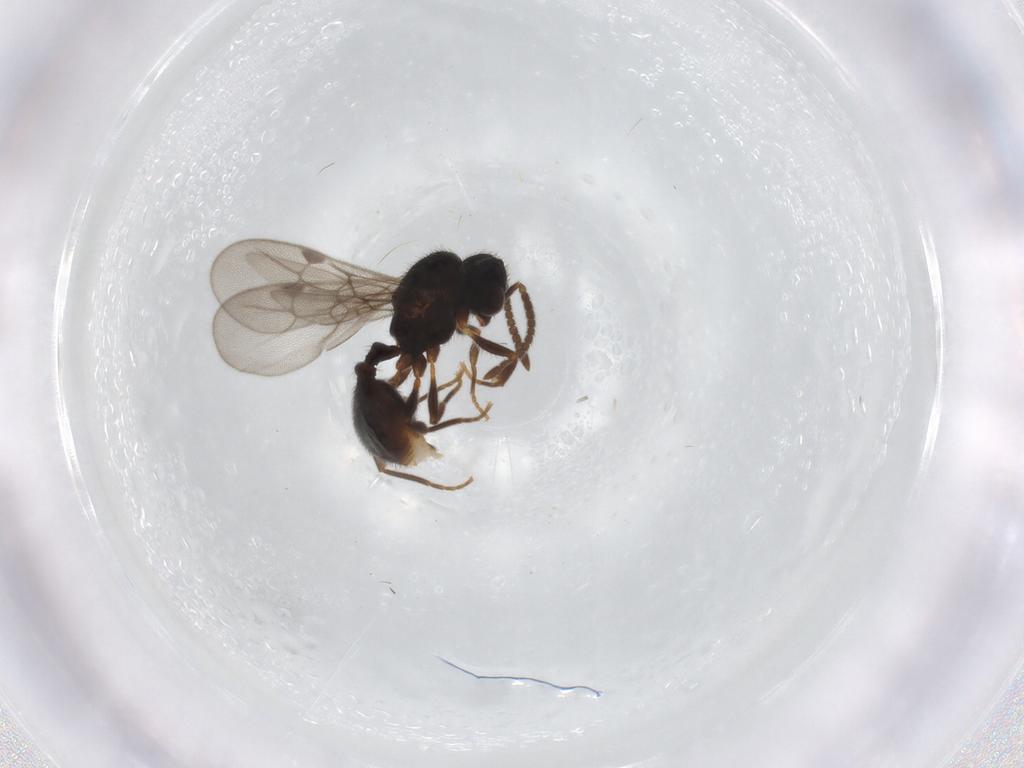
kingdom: Animalia
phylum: Arthropoda
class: Insecta
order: Hymenoptera
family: Formicidae
